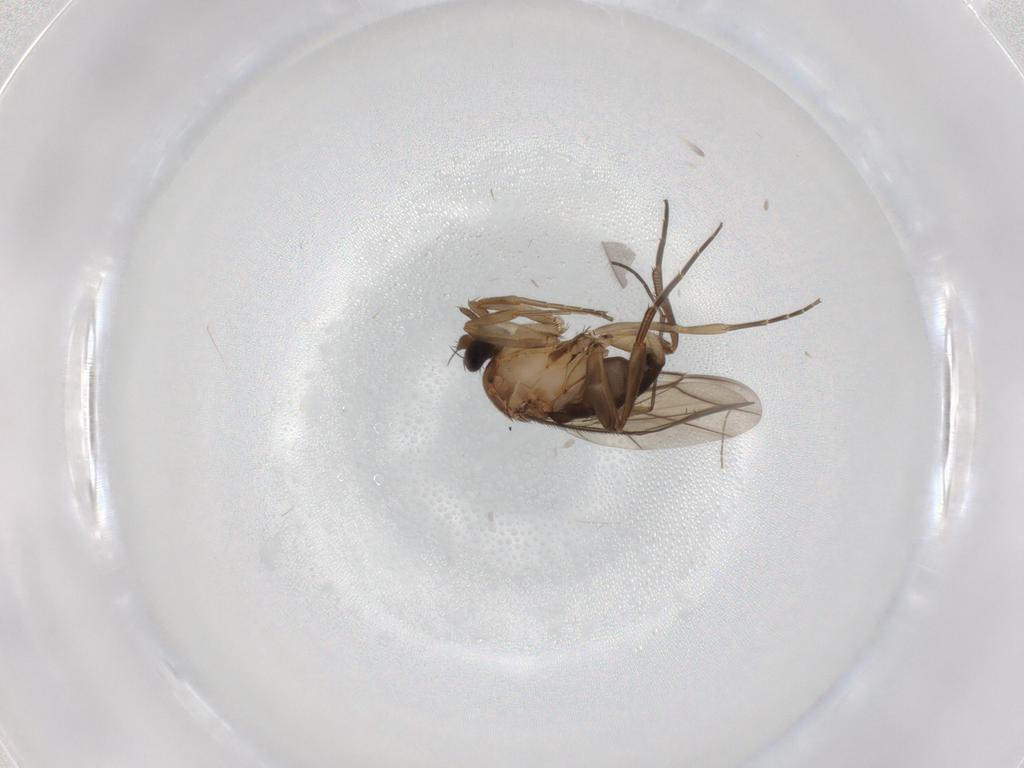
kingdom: Animalia
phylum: Arthropoda
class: Insecta
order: Diptera
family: Phoridae
